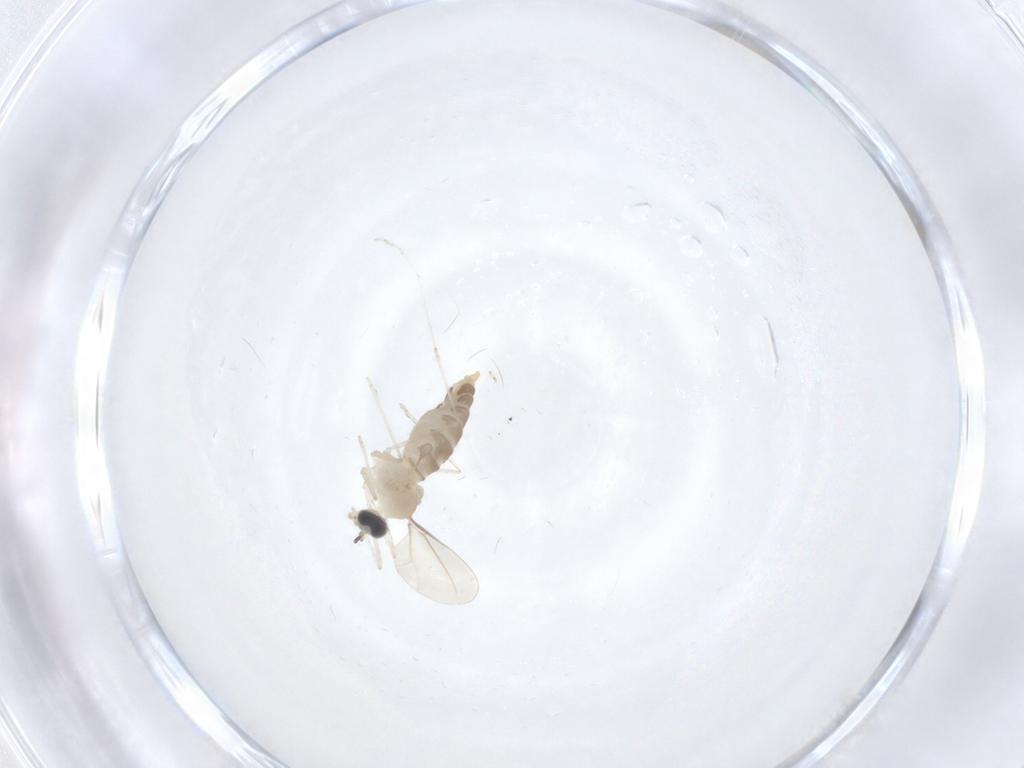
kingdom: Animalia
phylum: Arthropoda
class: Insecta
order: Diptera
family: Cecidomyiidae
